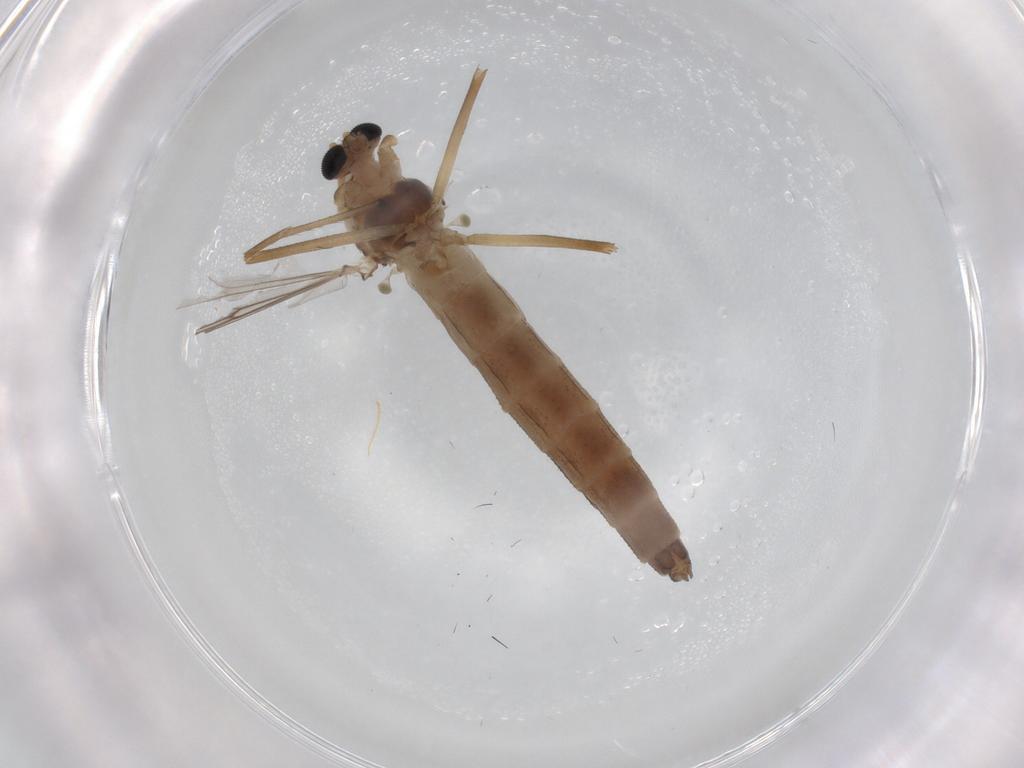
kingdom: Animalia
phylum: Arthropoda
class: Insecta
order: Diptera
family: Chironomidae
